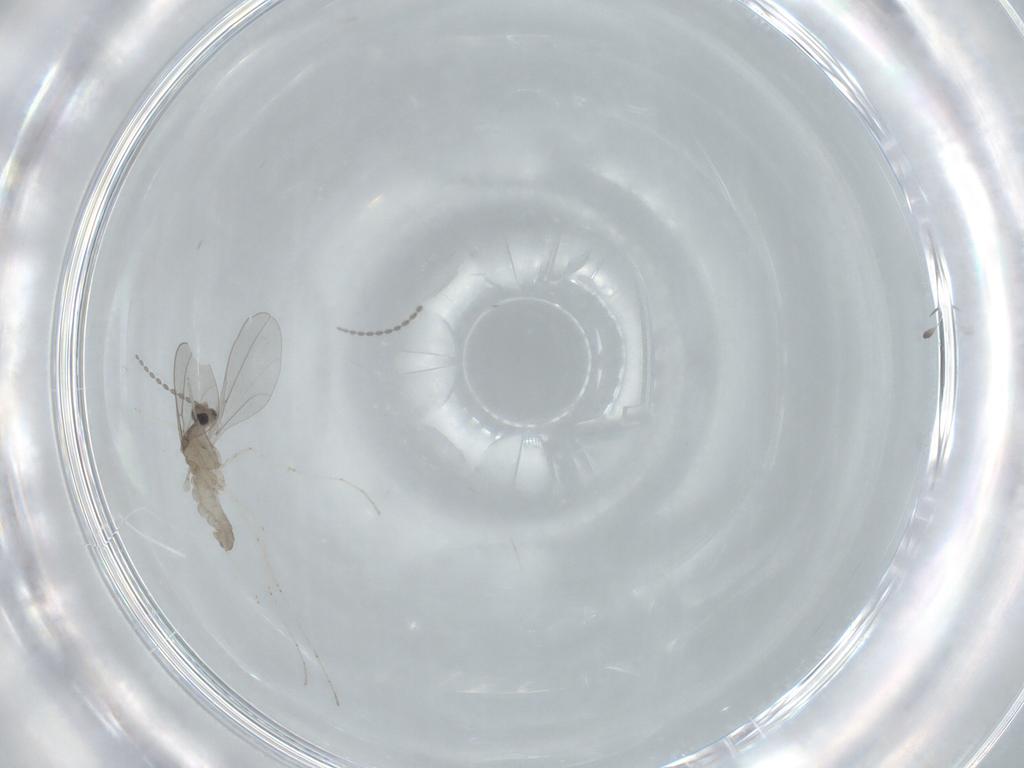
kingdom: Animalia
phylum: Arthropoda
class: Insecta
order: Diptera
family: Cecidomyiidae
